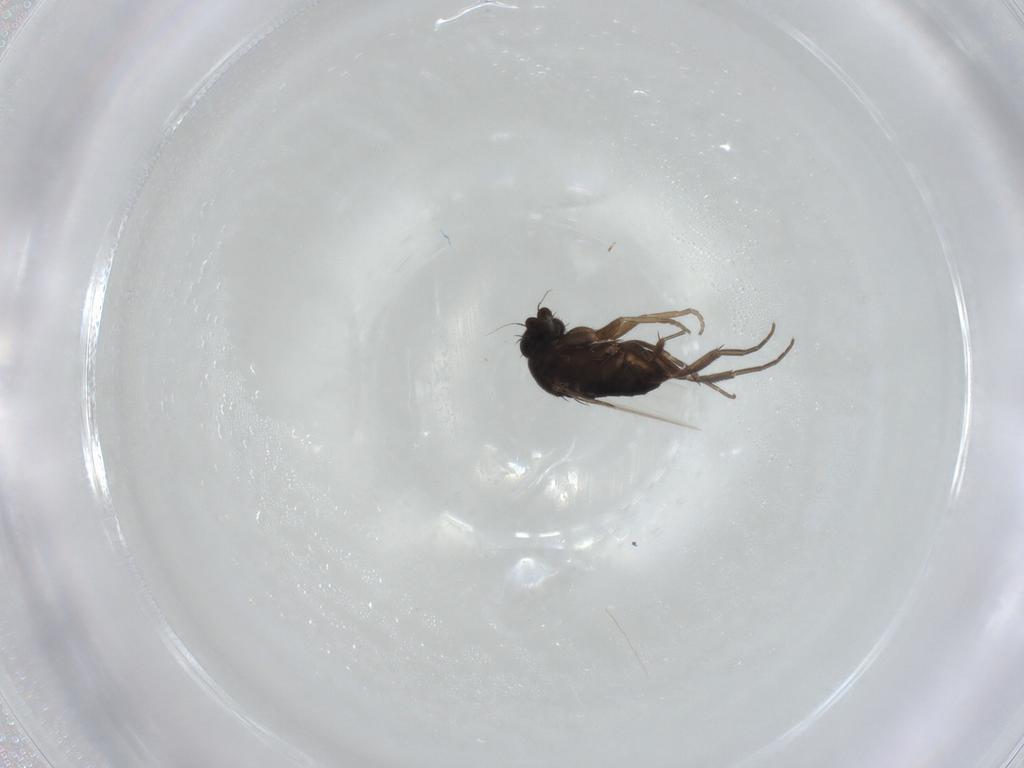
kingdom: Animalia
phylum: Arthropoda
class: Insecta
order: Diptera
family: Phoridae
